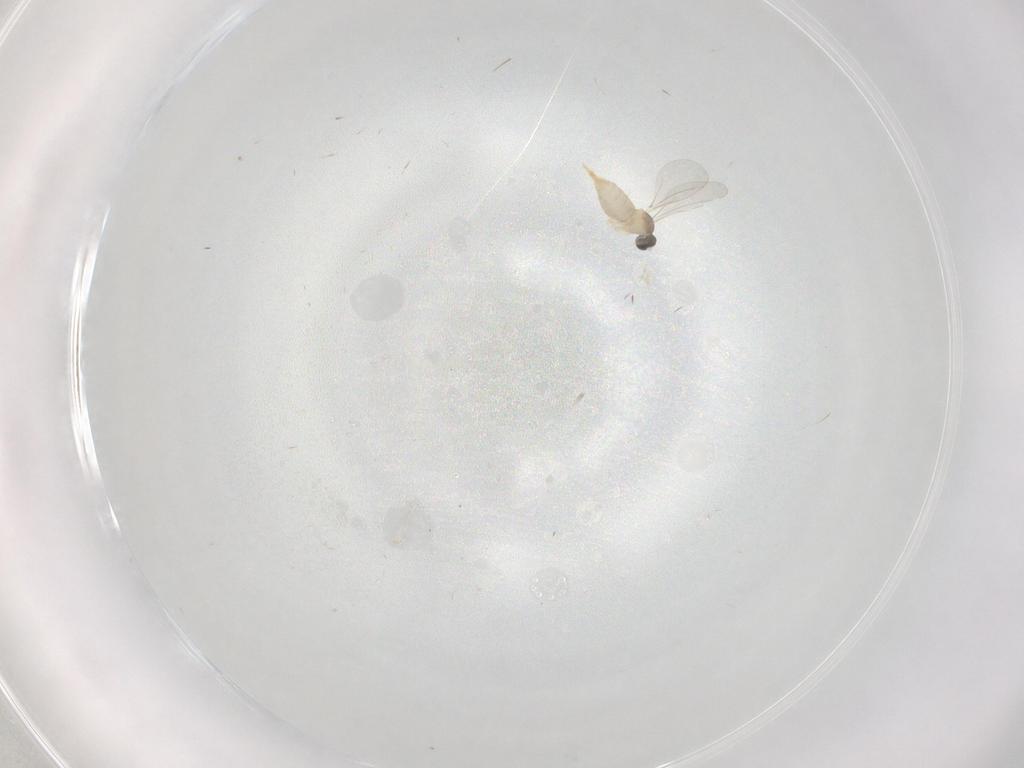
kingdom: Animalia
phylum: Arthropoda
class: Insecta
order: Diptera
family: Cecidomyiidae
